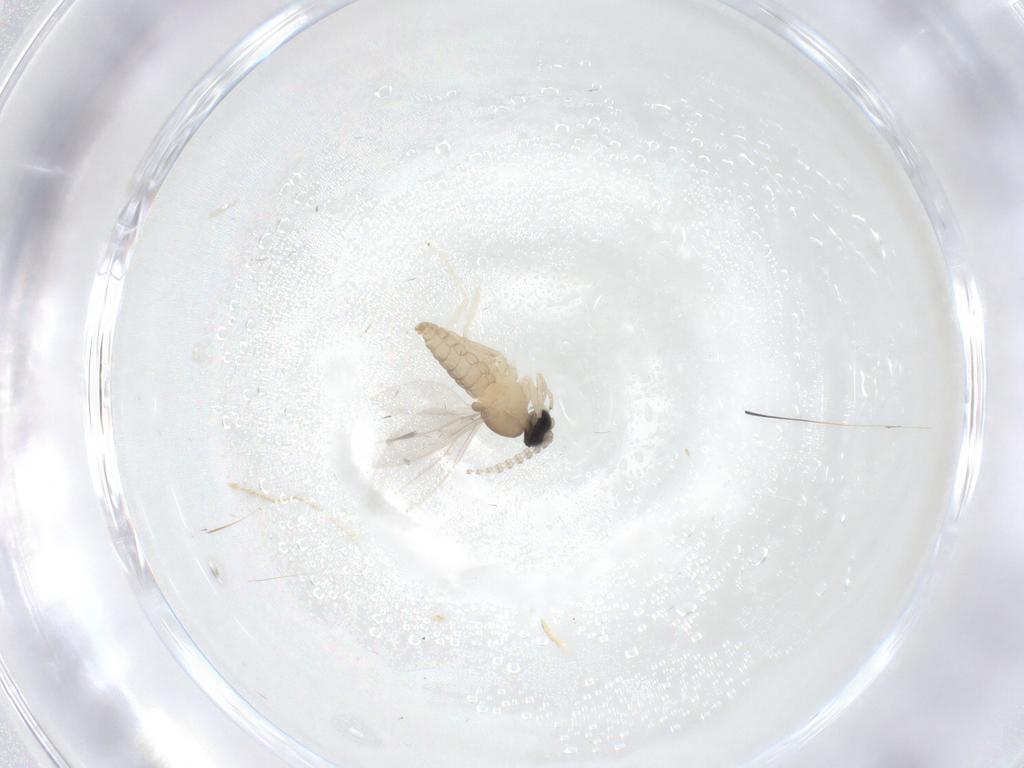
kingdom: Animalia
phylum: Arthropoda
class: Insecta
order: Diptera
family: Cecidomyiidae
